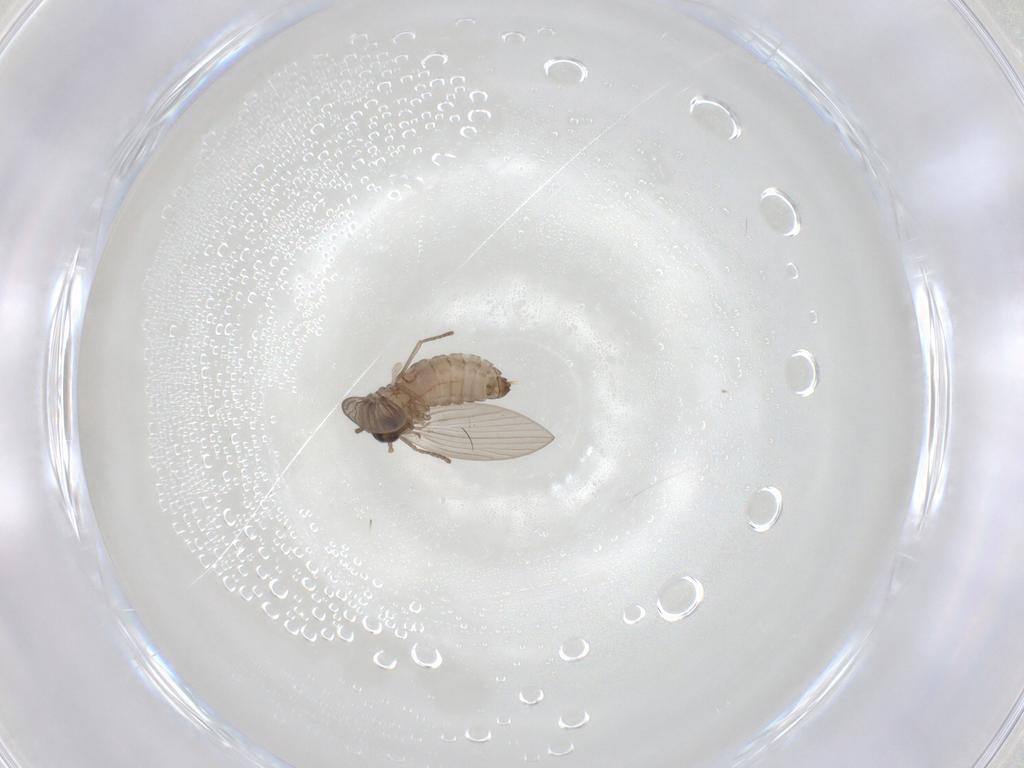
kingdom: Animalia
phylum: Arthropoda
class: Insecta
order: Diptera
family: Psychodidae
